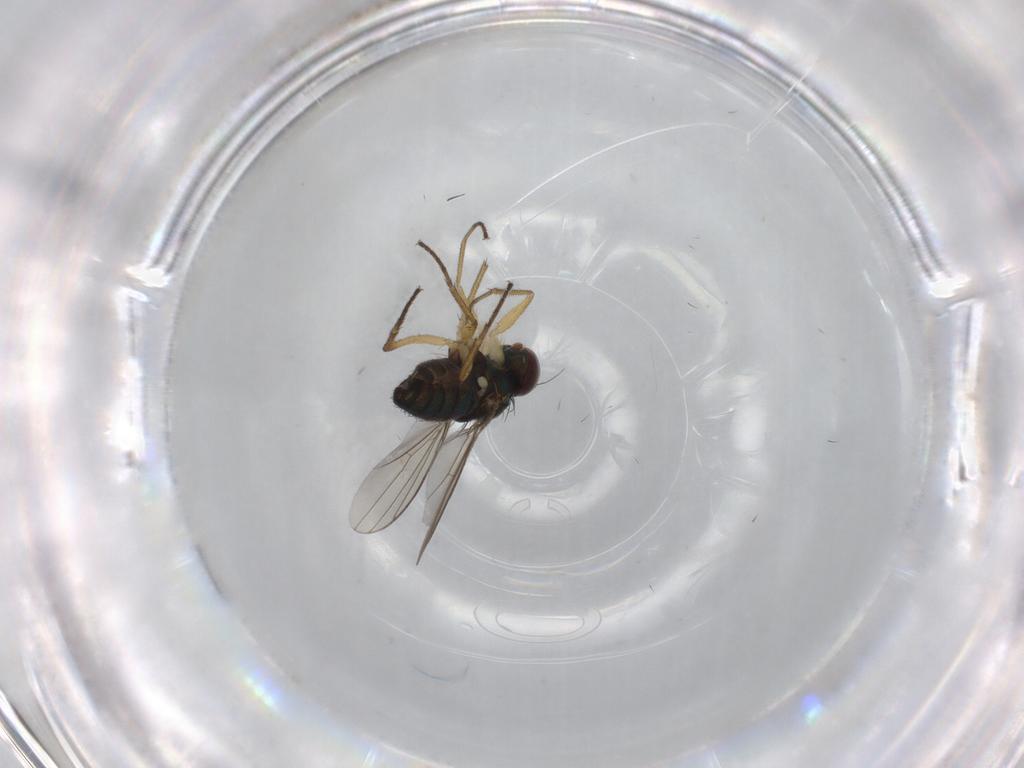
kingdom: Animalia
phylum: Arthropoda
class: Insecta
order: Diptera
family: Dolichopodidae
